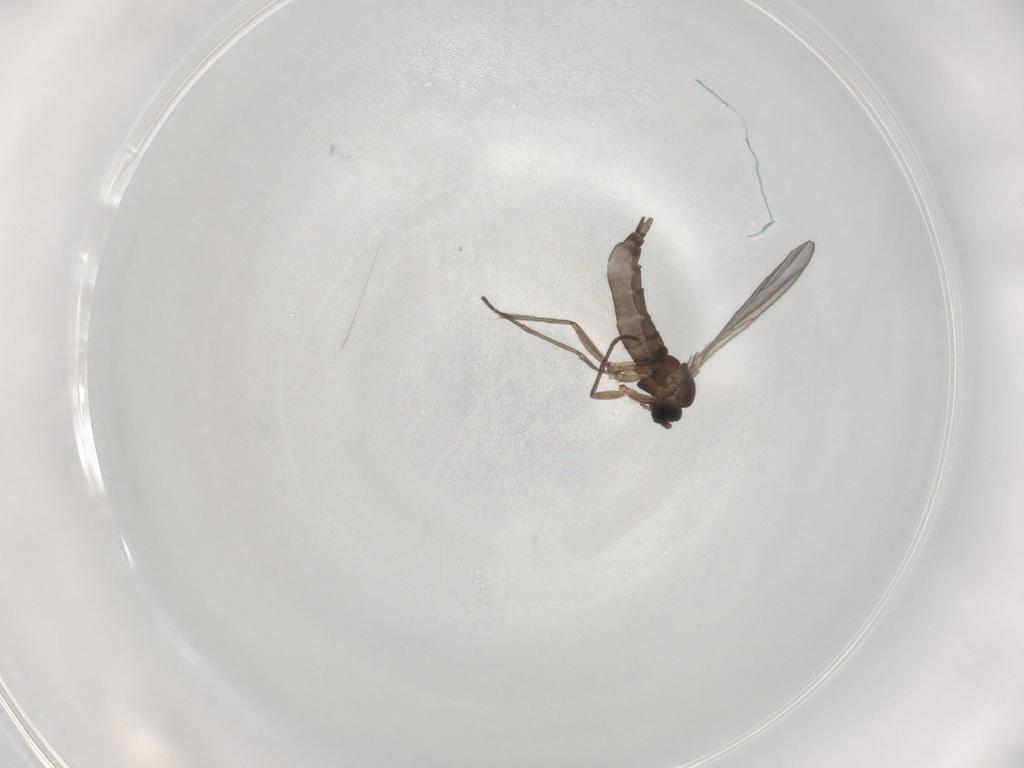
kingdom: Animalia
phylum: Arthropoda
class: Insecta
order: Diptera
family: Sciaridae
